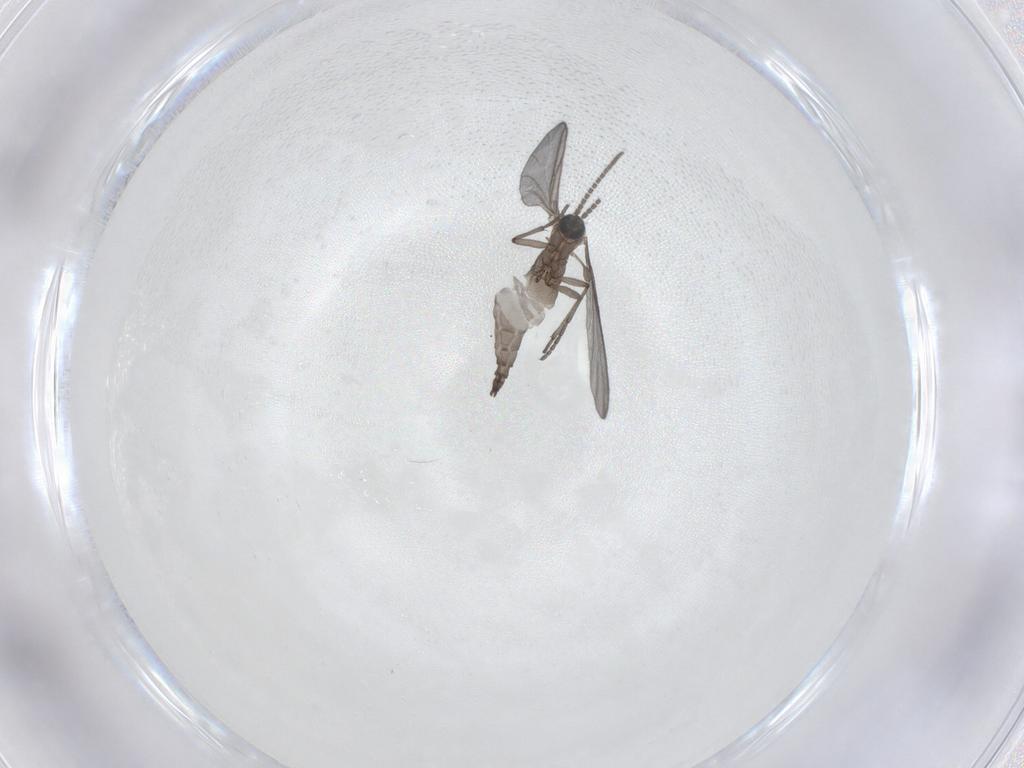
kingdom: Animalia
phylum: Arthropoda
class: Insecta
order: Diptera
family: Sciaridae
